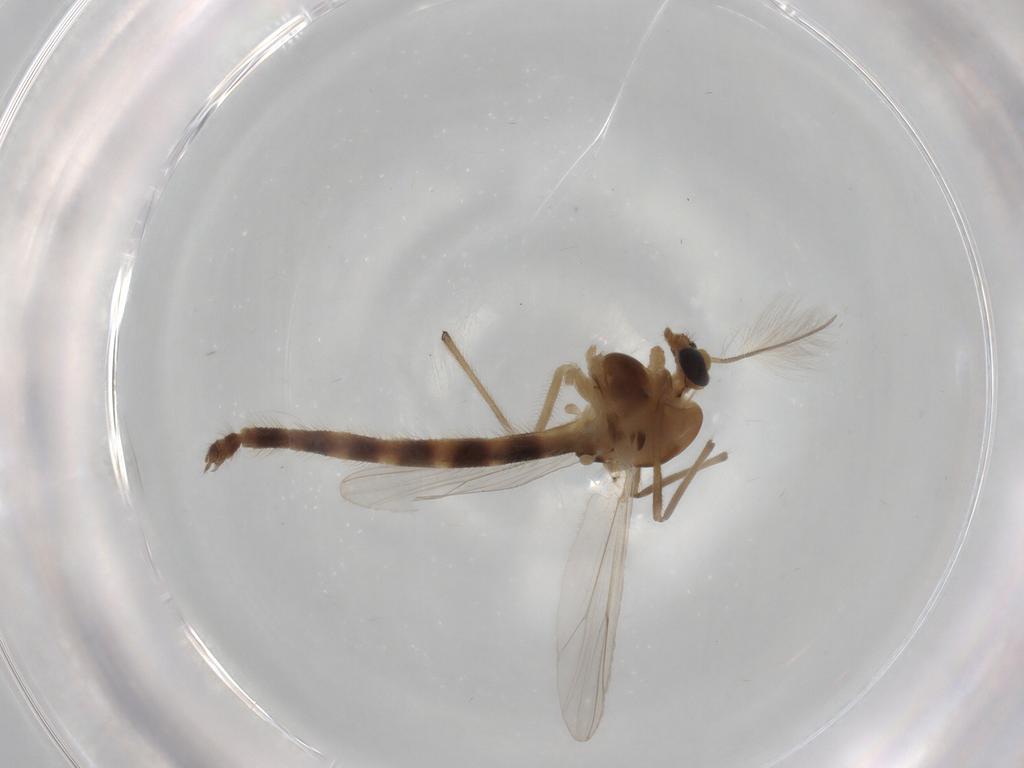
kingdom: Animalia
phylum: Arthropoda
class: Insecta
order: Diptera
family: Chironomidae
